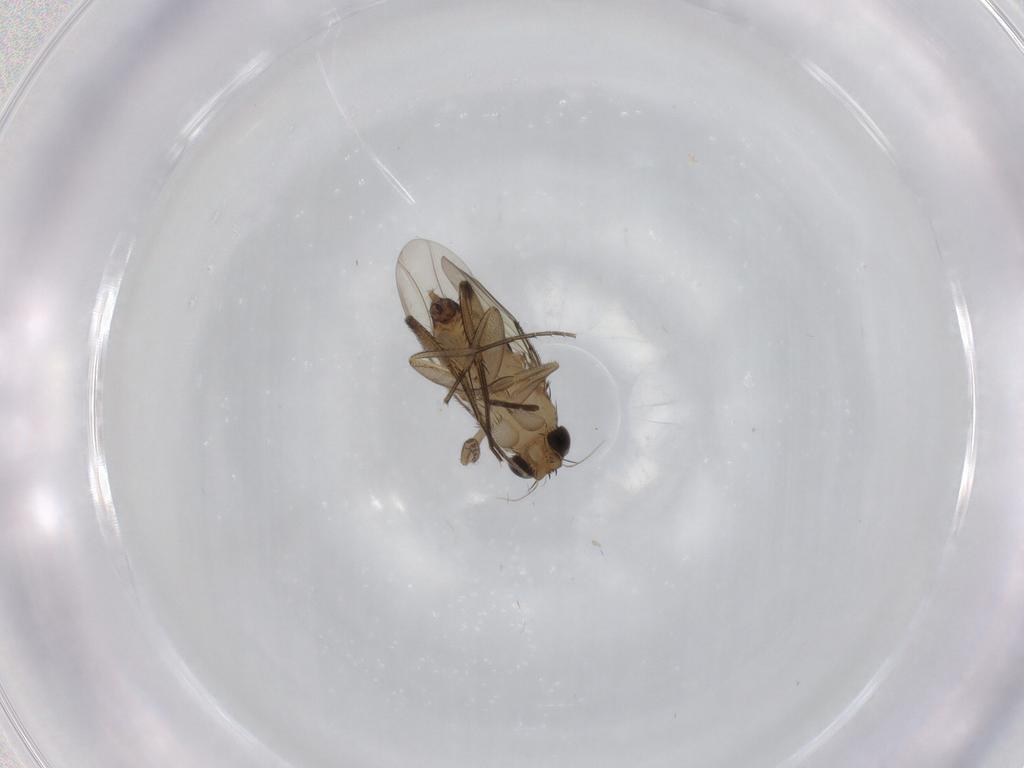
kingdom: Animalia
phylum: Arthropoda
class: Insecta
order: Diptera
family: Phoridae
